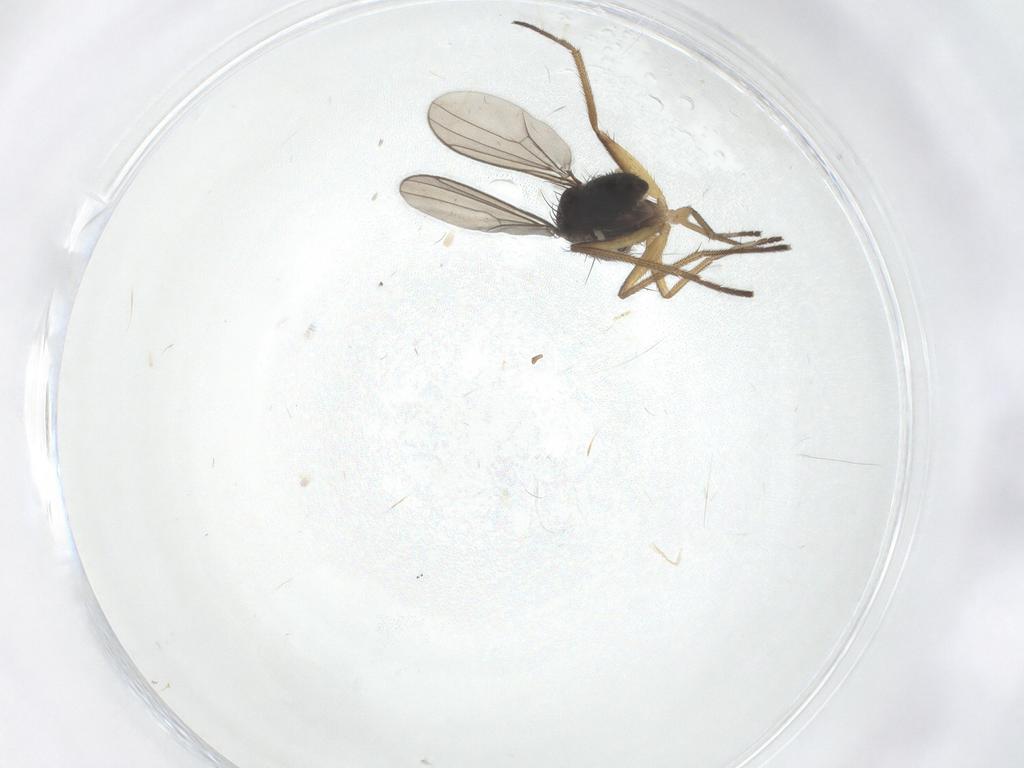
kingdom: Animalia
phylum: Arthropoda
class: Insecta
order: Diptera
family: Dolichopodidae
